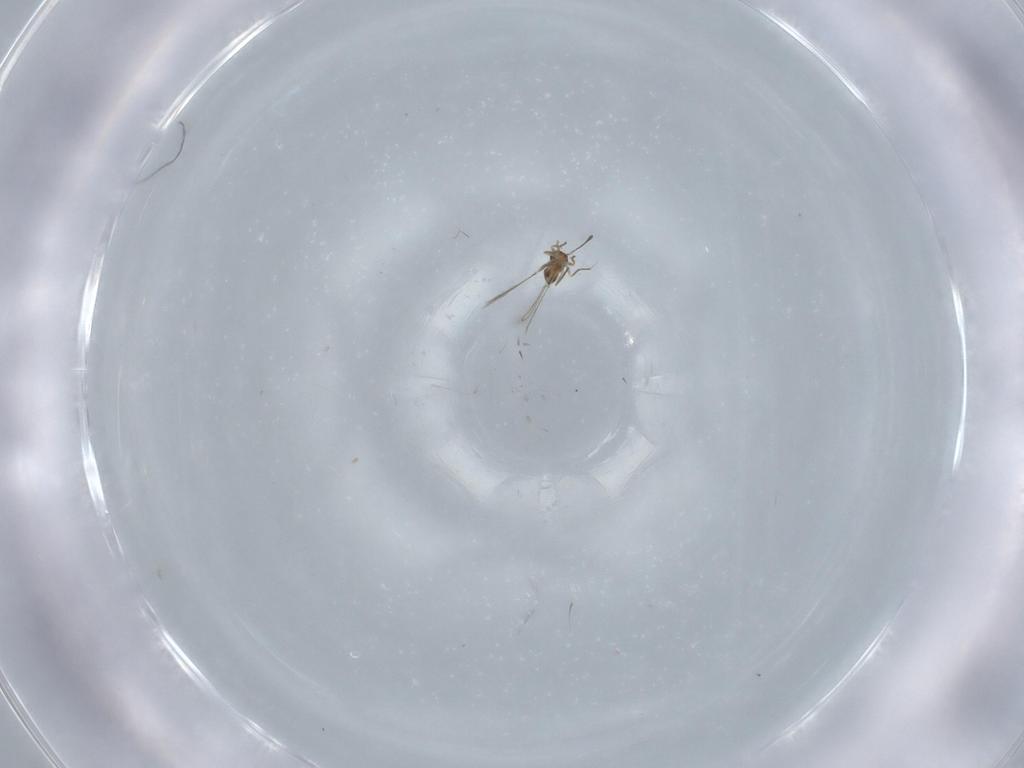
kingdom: Animalia
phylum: Arthropoda
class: Insecta
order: Hymenoptera
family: Mymaridae
